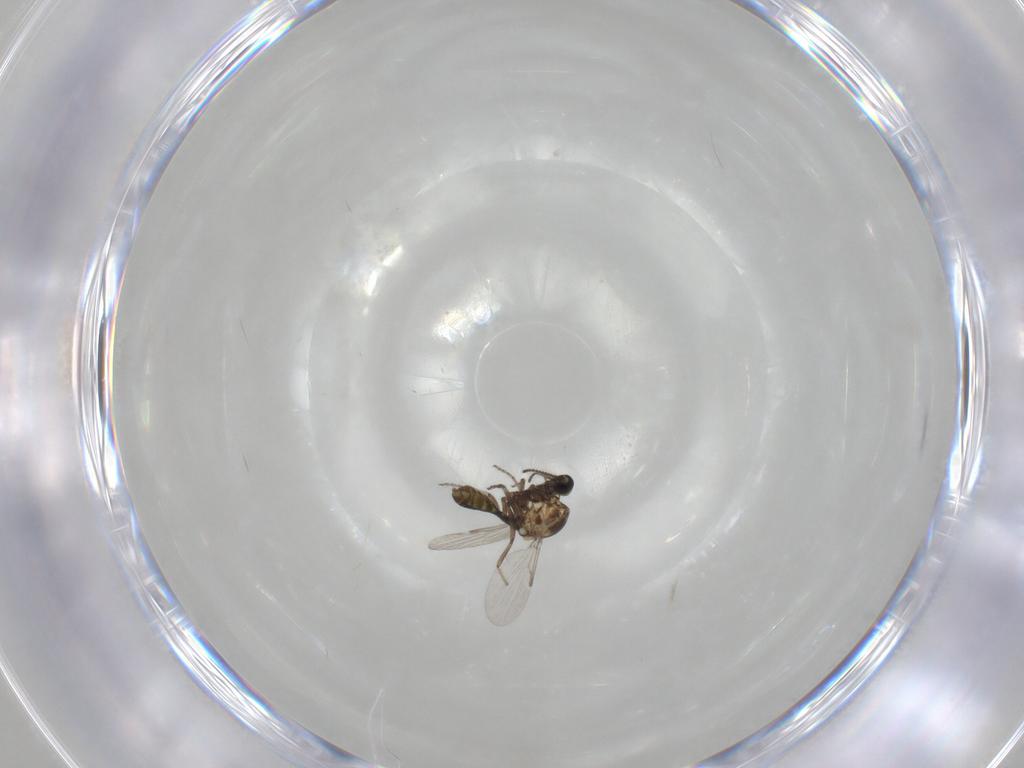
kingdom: Animalia
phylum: Arthropoda
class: Insecta
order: Diptera
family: Ceratopogonidae
